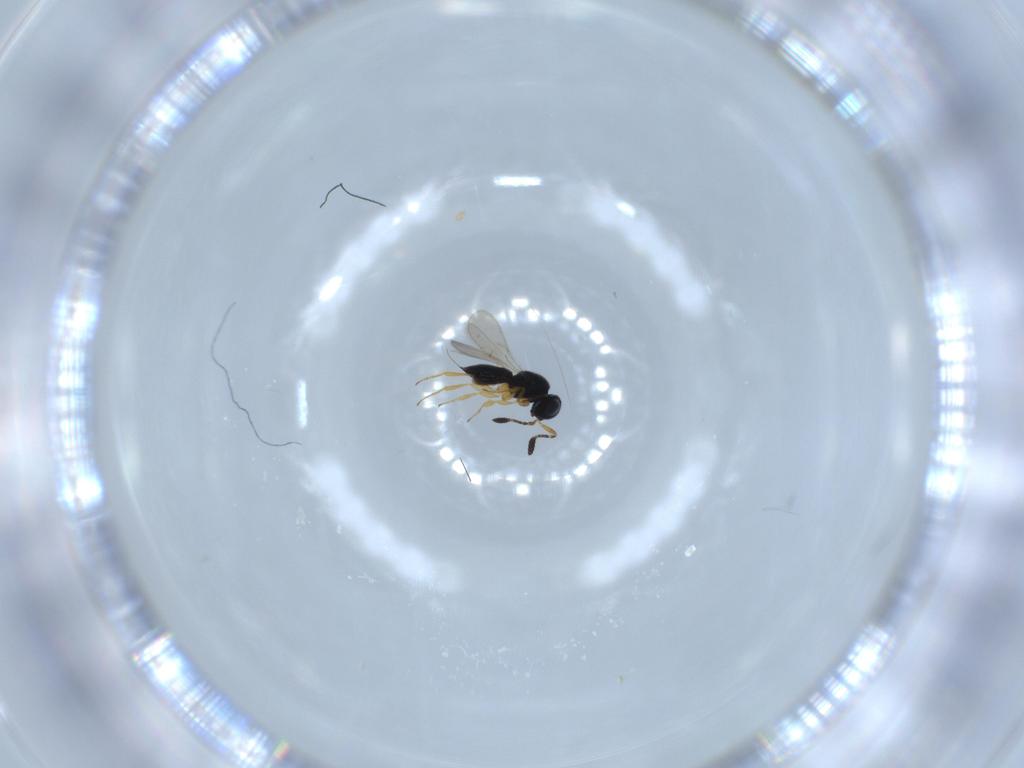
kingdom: Animalia
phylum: Arthropoda
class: Insecta
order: Hymenoptera
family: Scelionidae
